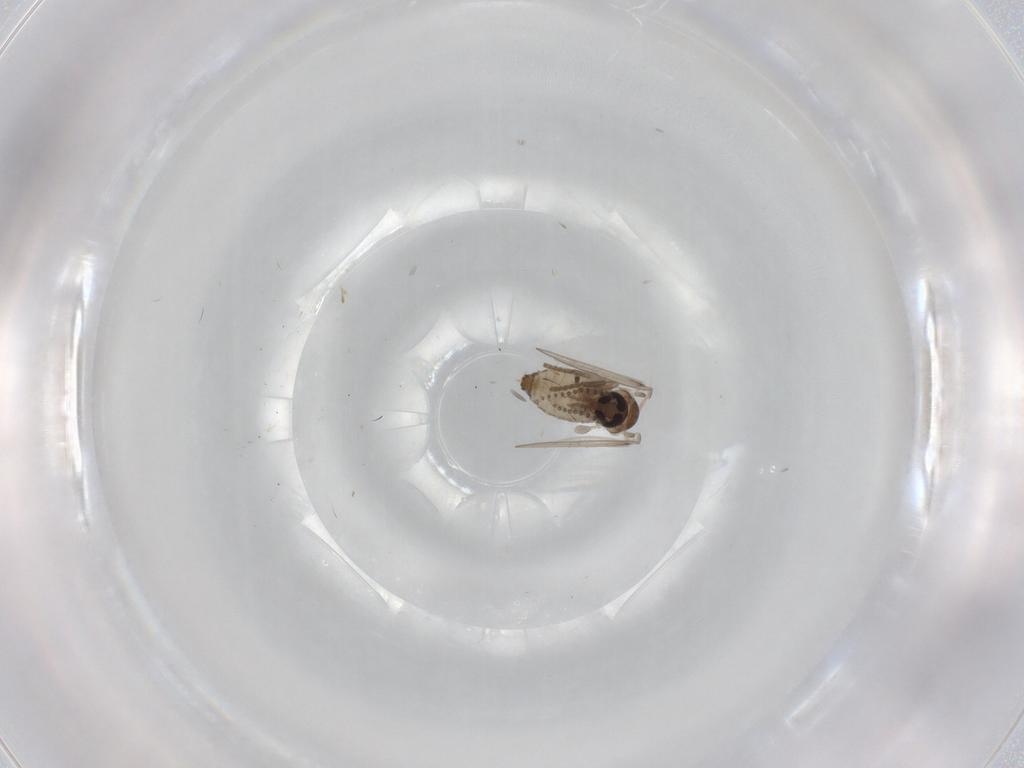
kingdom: Animalia
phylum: Arthropoda
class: Insecta
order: Diptera
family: Psychodidae
